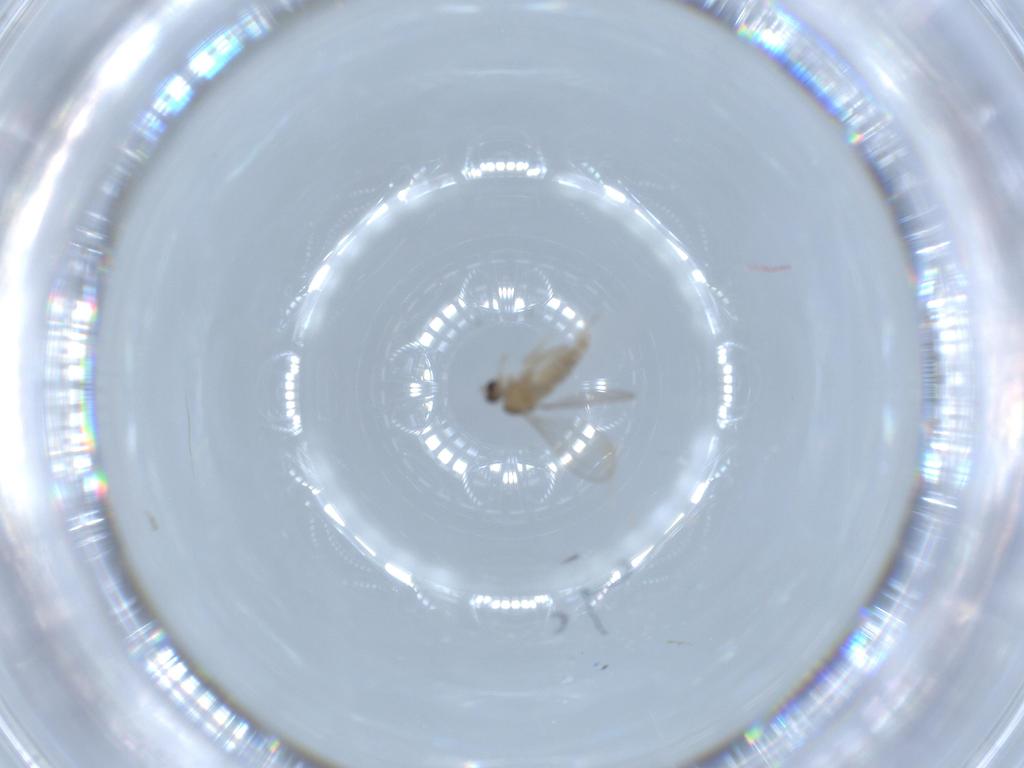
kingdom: Animalia
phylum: Arthropoda
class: Insecta
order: Diptera
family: Cecidomyiidae
